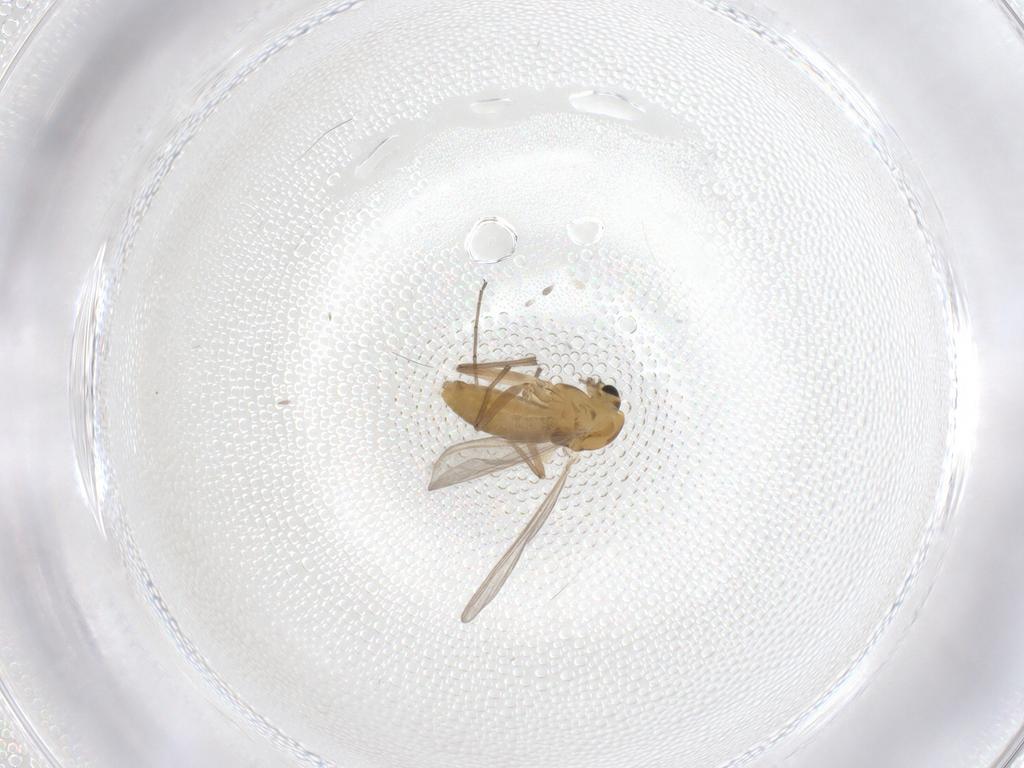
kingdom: Animalia
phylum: Arthropoda
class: Insecta
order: Diptera
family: Chironomidae
